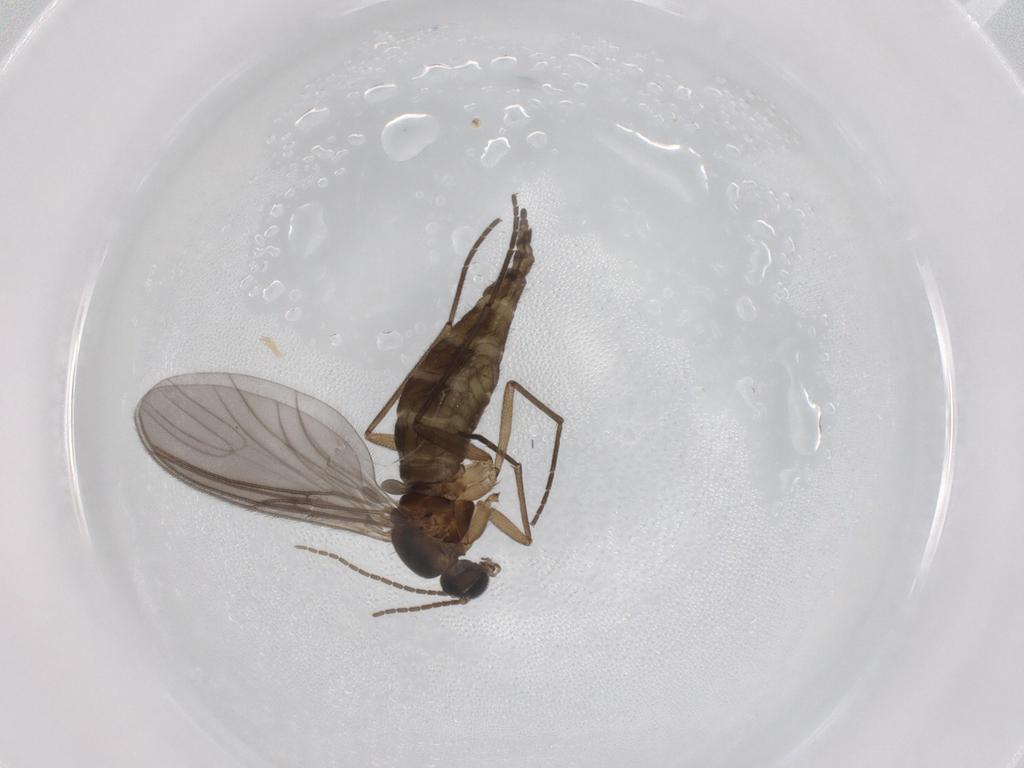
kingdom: Animalia
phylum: Arthropoda
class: Insecta
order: Diptera
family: Sciaridae
